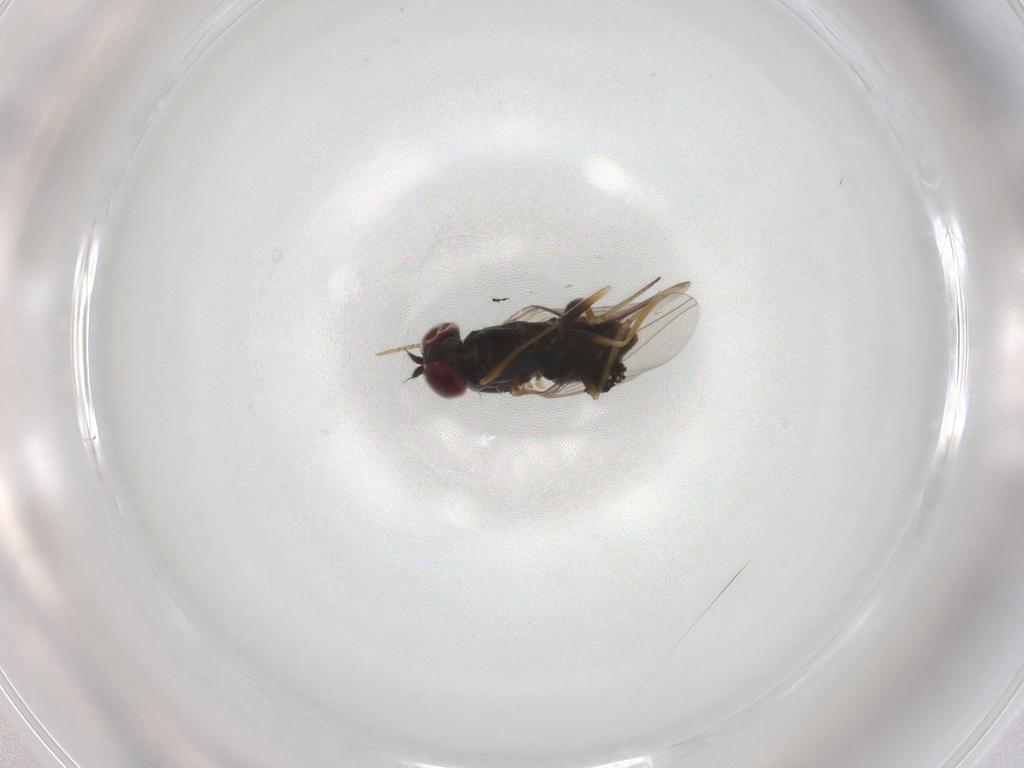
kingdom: Animalia
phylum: Arthropoda
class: Insecta
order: Diptera
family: Dolichopodidae
